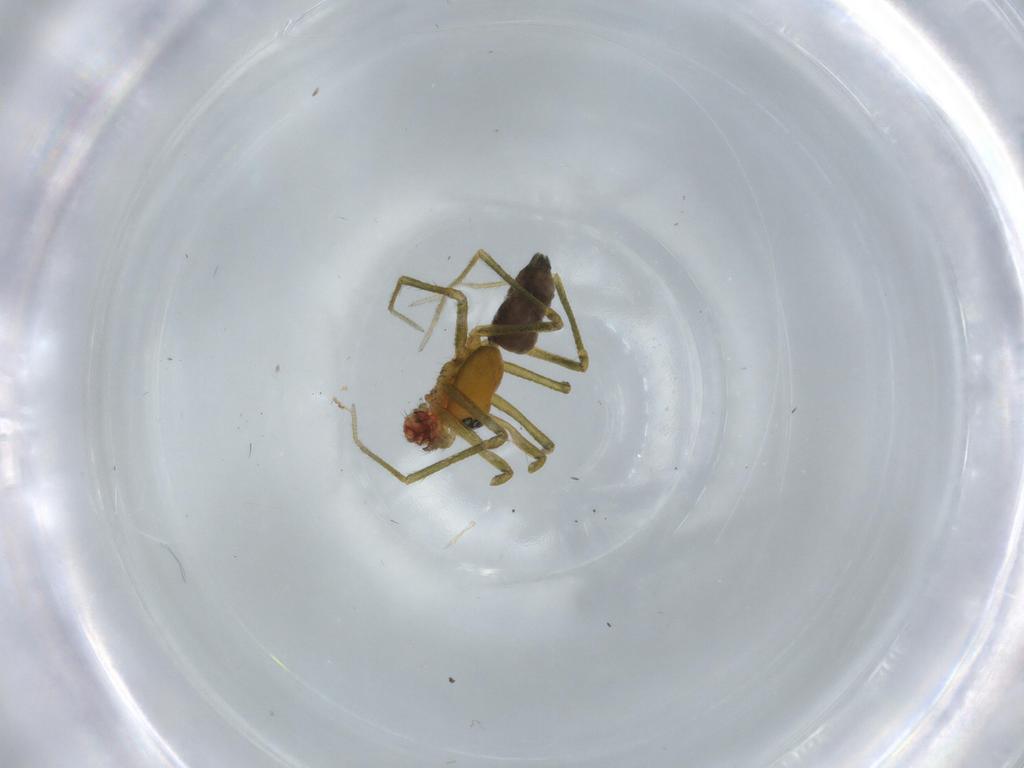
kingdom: Animalia
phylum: Arthropoda
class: Arachnida
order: Araneae
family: Linyphiidae
